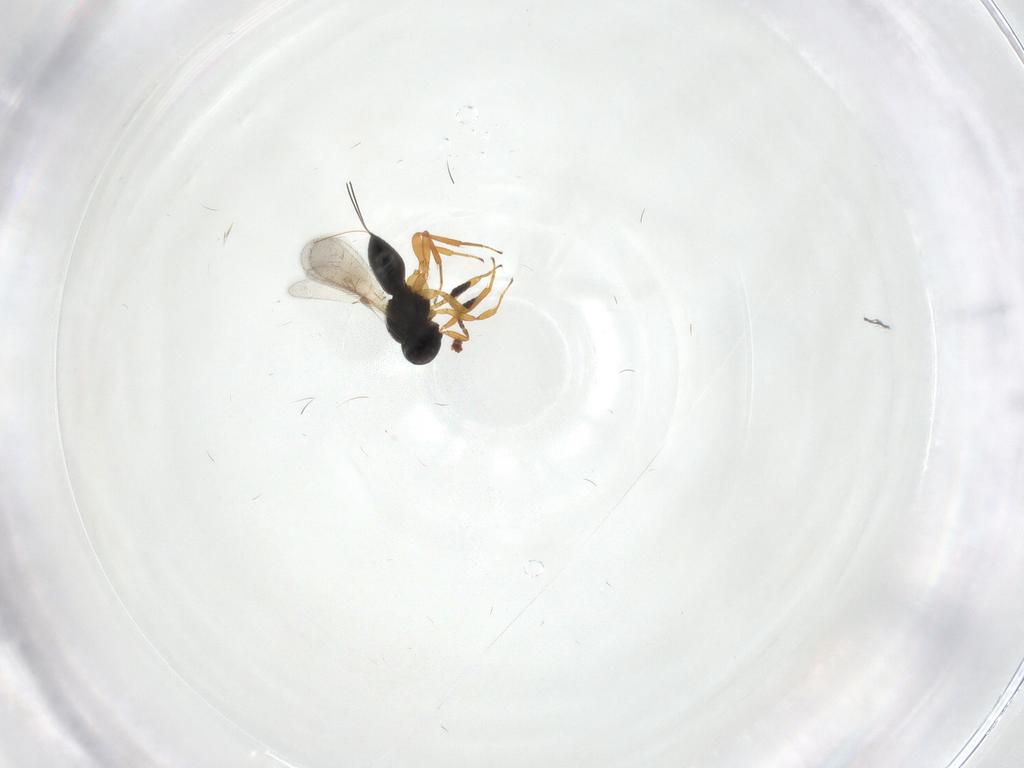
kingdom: Animalia
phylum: Arthropoda
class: Insecta
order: Hymenoptera
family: Scelionidae
